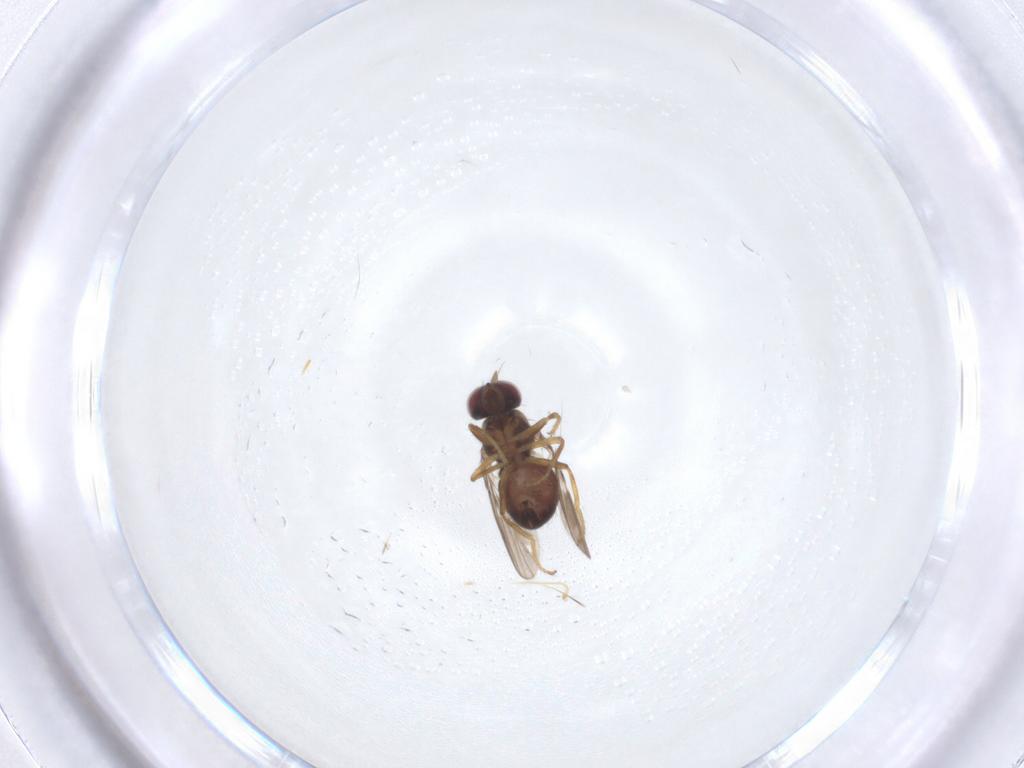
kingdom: Animalia
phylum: Arthropoda
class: Insecta
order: Diptera
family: Ephydridae
